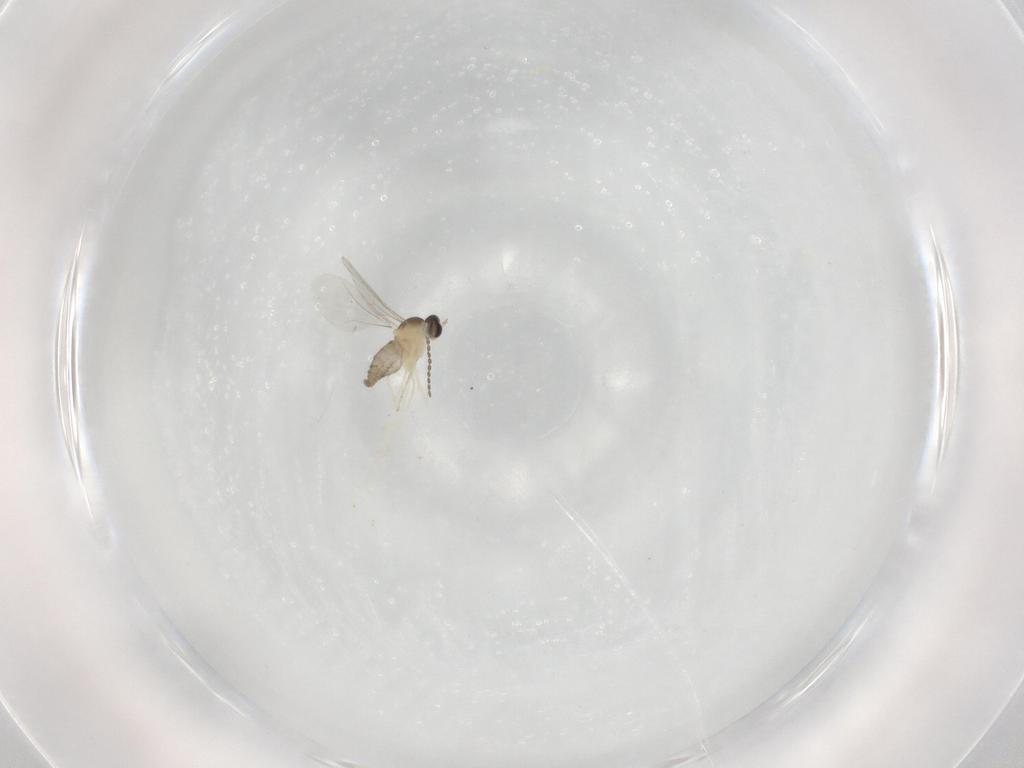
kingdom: Animalia
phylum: Arthropoda
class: Insecta
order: Diptera
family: Cecidomyiidae
